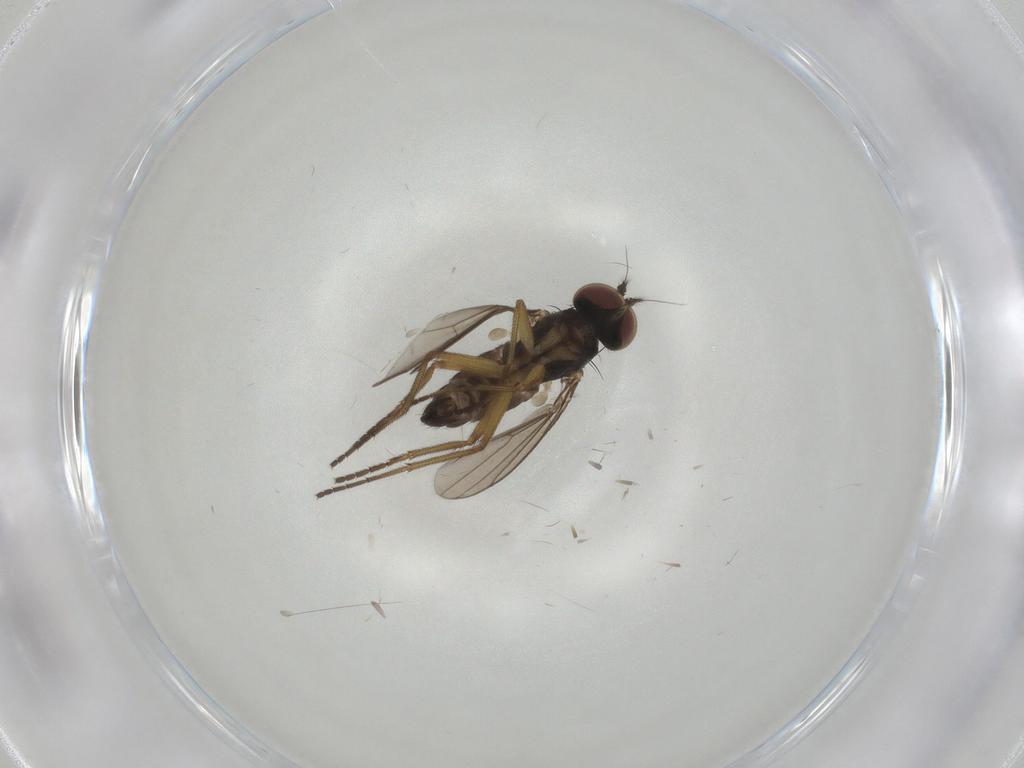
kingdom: Animalia
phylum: Arthropoda
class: Insecta
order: Diptera
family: Dolichopodidae
